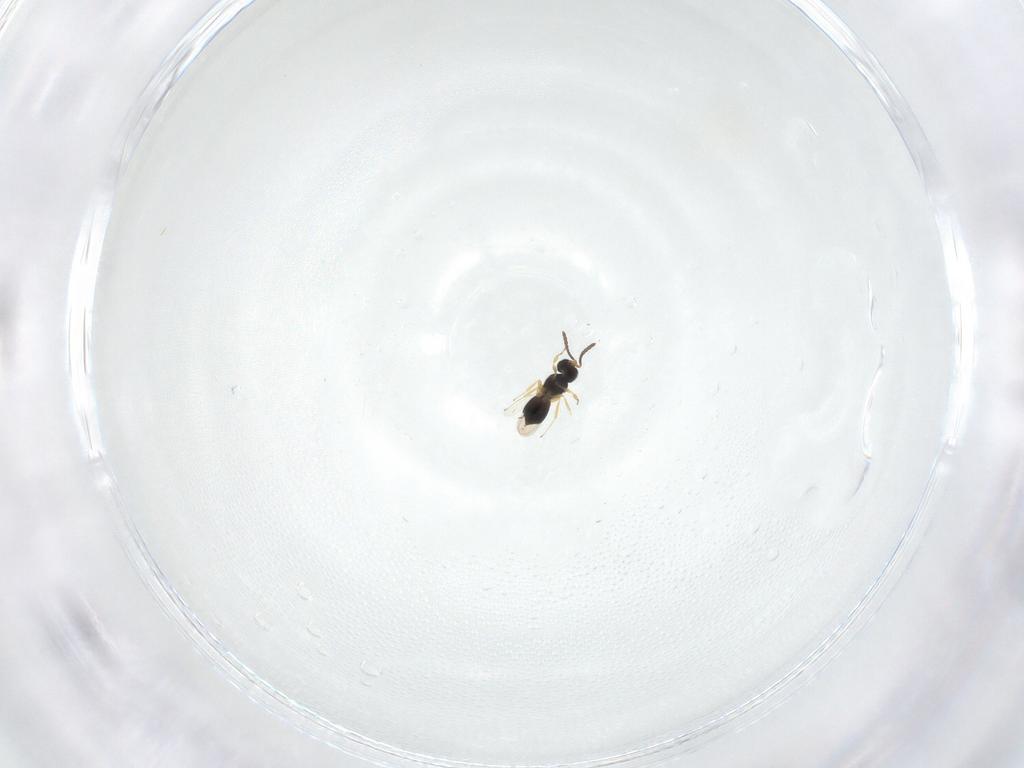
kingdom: Animalia
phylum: Arthropoda
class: Insecta
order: Hymenoptera
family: Scelionidae
